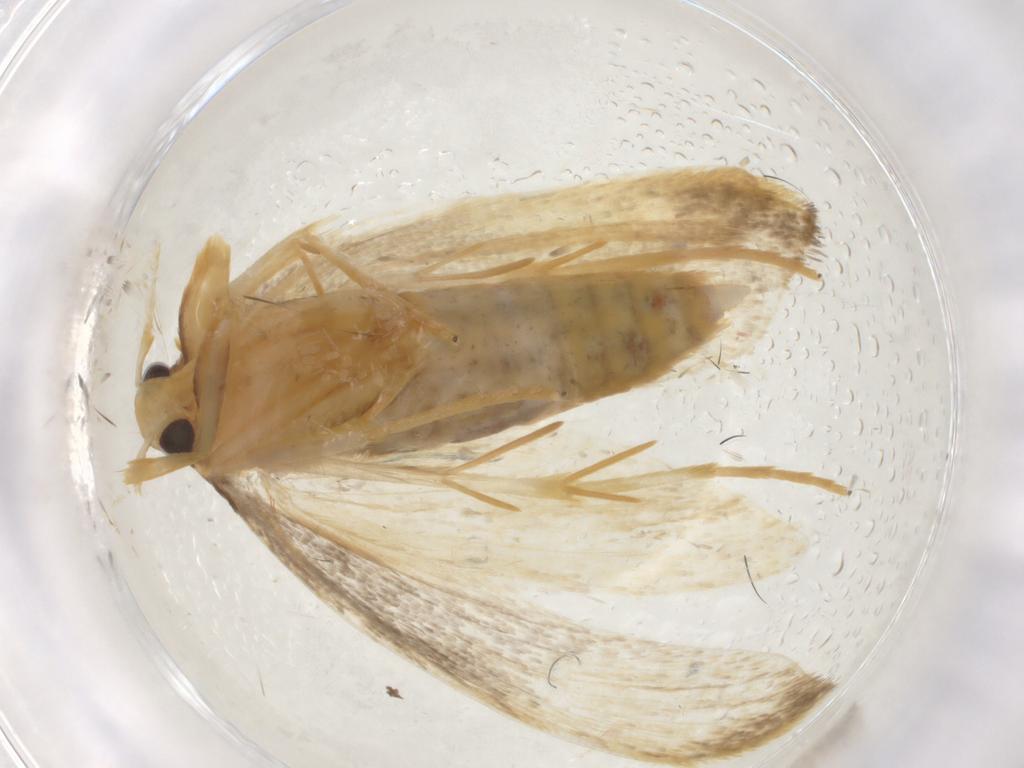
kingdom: Animalia
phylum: Arthropoda
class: Insecta
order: Lepidoptera
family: Lecithoceridae
